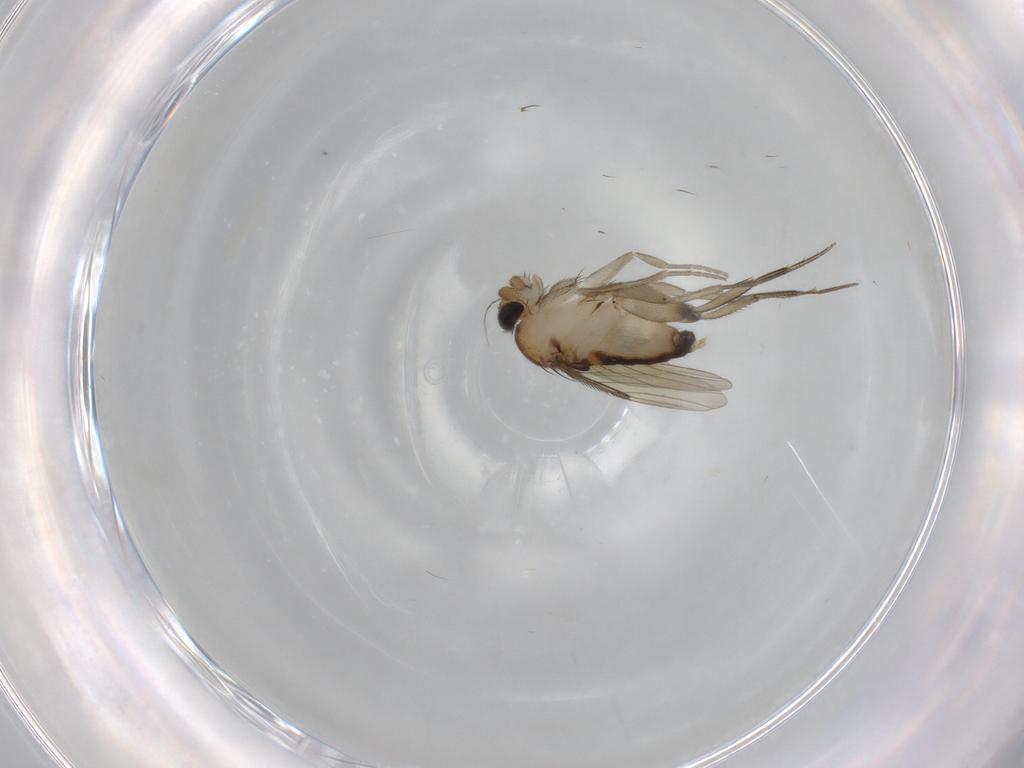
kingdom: Animalia
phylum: Arthropoda
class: Insecta
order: Diptera
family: Phoridae
